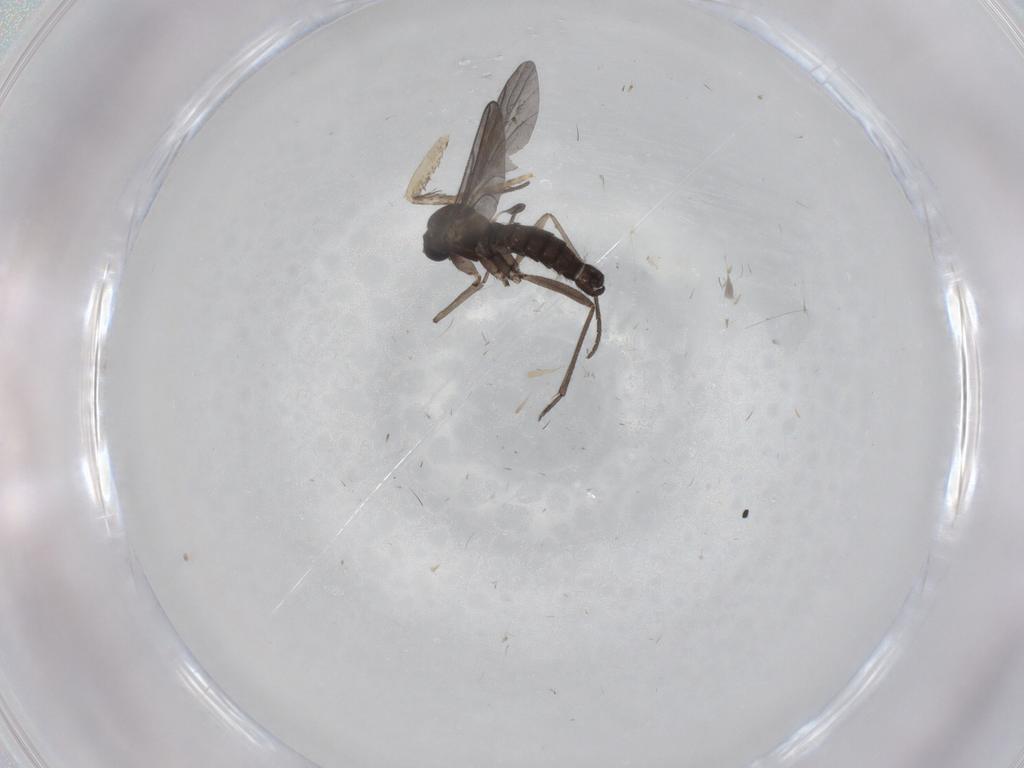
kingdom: Animalia
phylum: Arthropoda
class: Insecta
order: Diptera
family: Sciaridae
